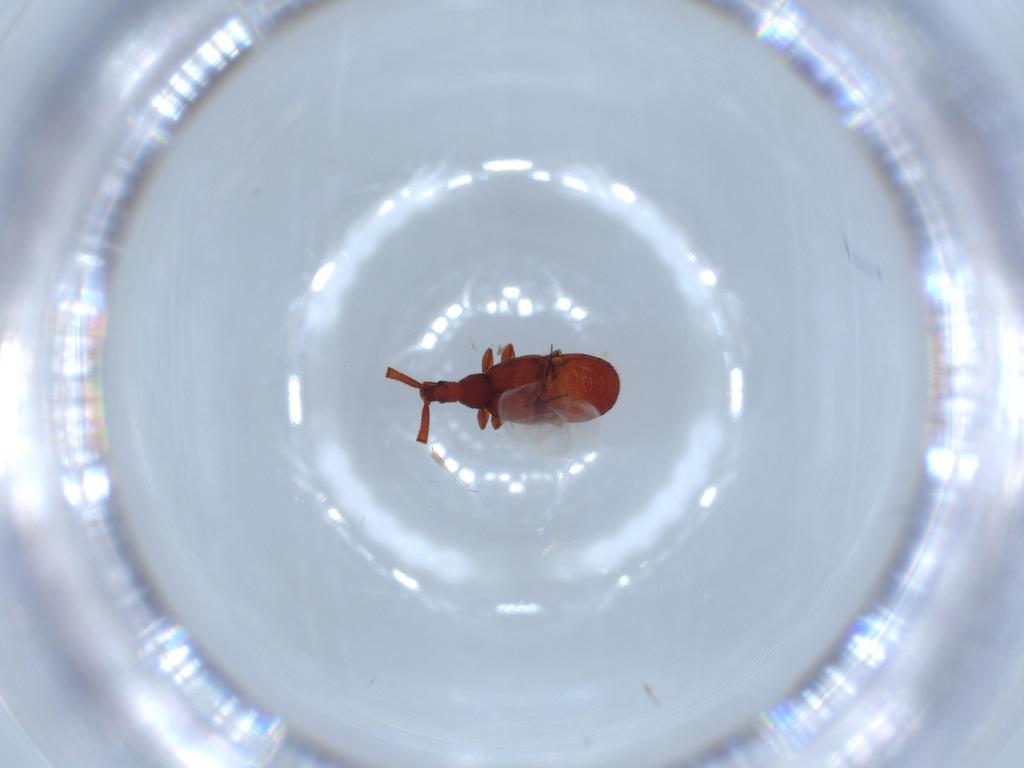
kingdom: Animalia
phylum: Arthropoda
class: Insecta
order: Coleoptera
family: Staphylinidae
